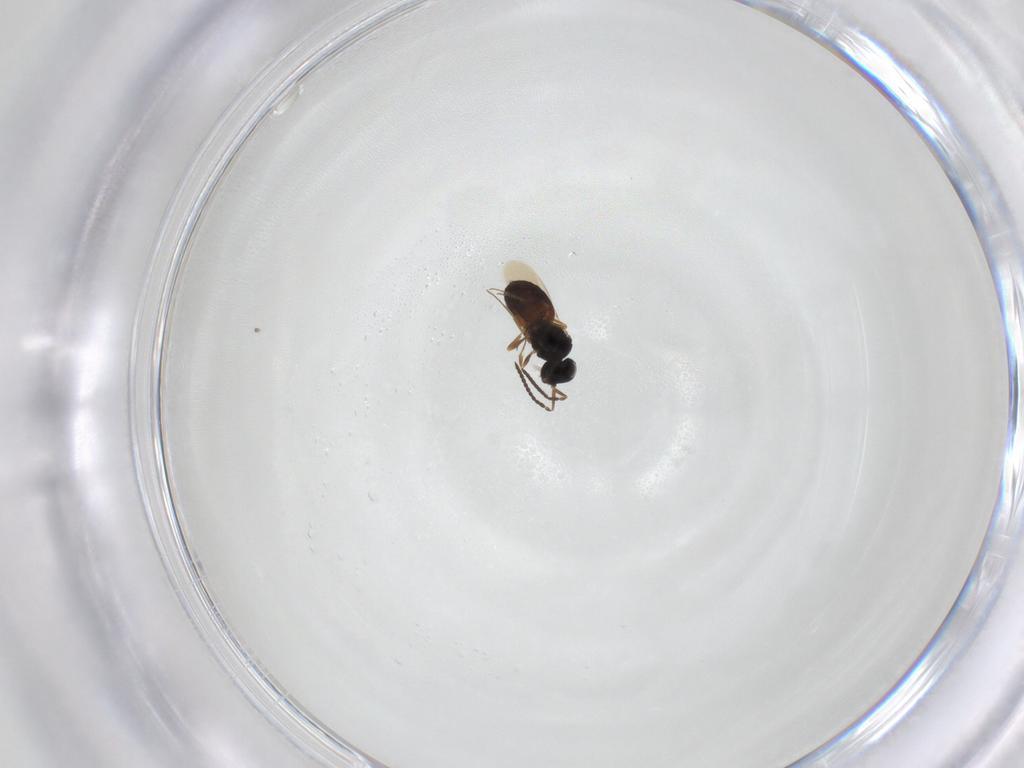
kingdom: Animalia
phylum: Arthropoda
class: Insecta
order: Hymenoptera
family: Scelionidae
